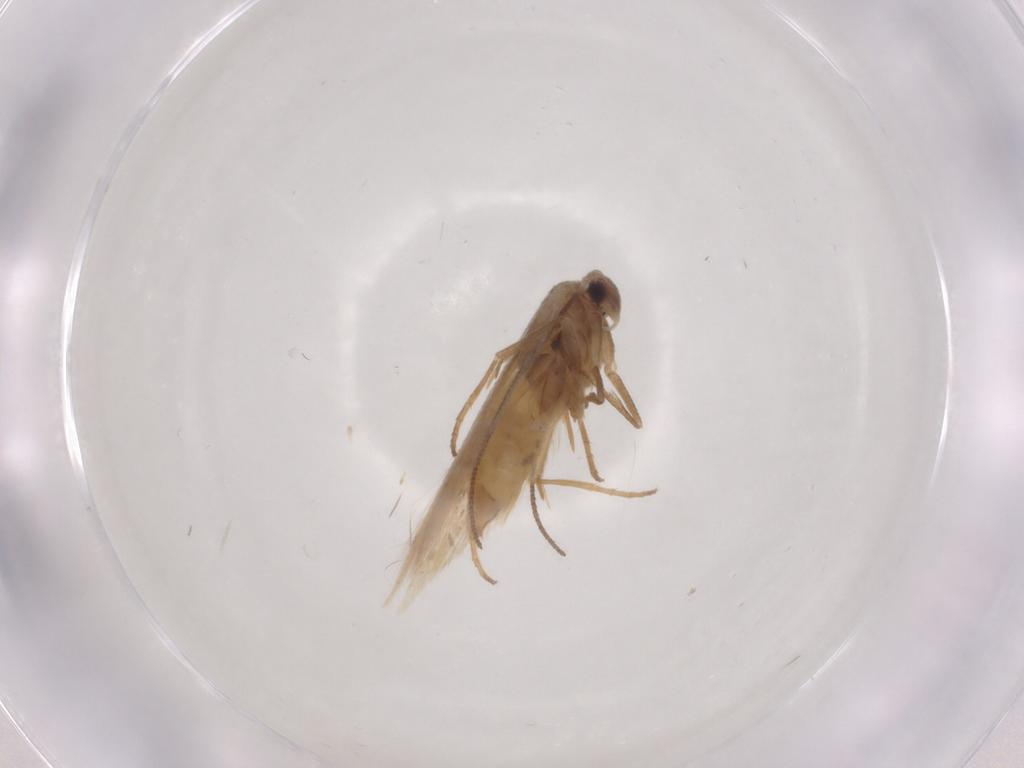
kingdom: Animalia
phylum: Arthropoda
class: Insecta
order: Lepidoptera
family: Bucculatricidae
